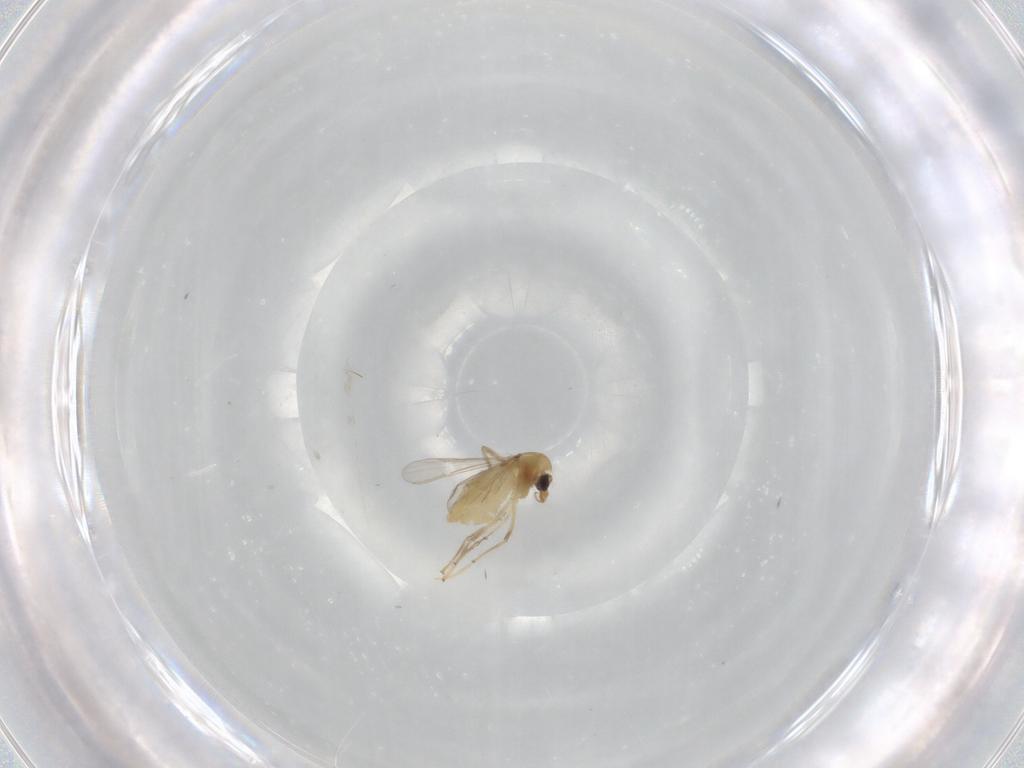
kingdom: Animalia
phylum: Arthropoda
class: Insecta
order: Diptera
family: Chironomidae
